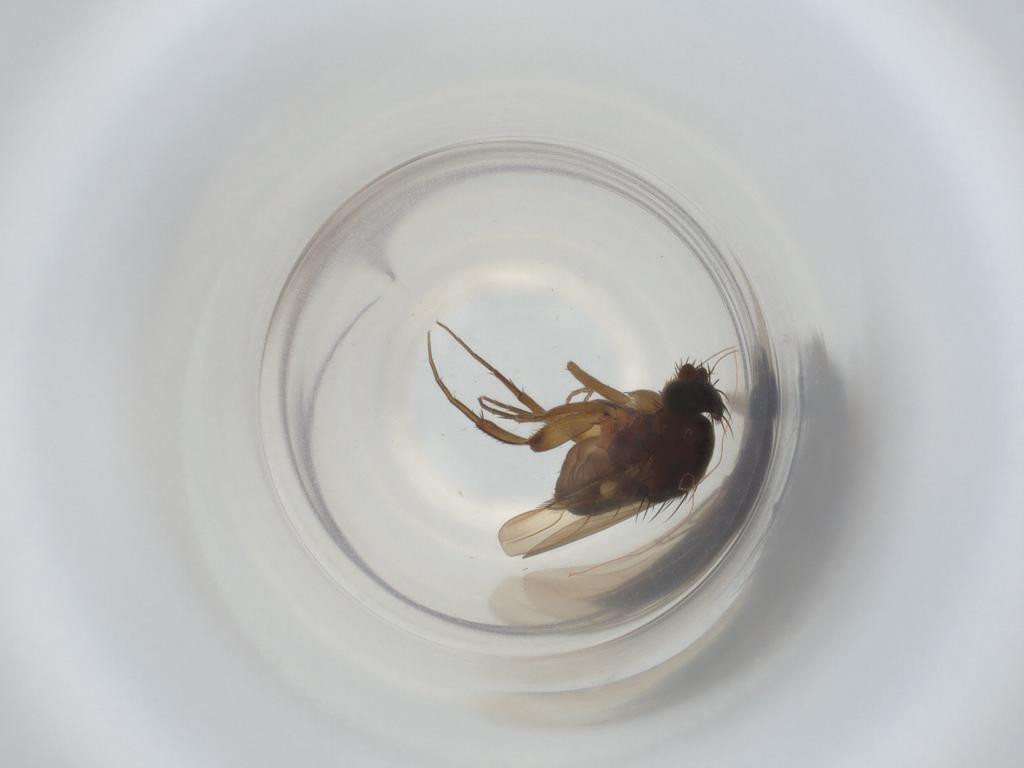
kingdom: Animalia
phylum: Arthropoda
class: Insecta
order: Diptera
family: Phoridae
